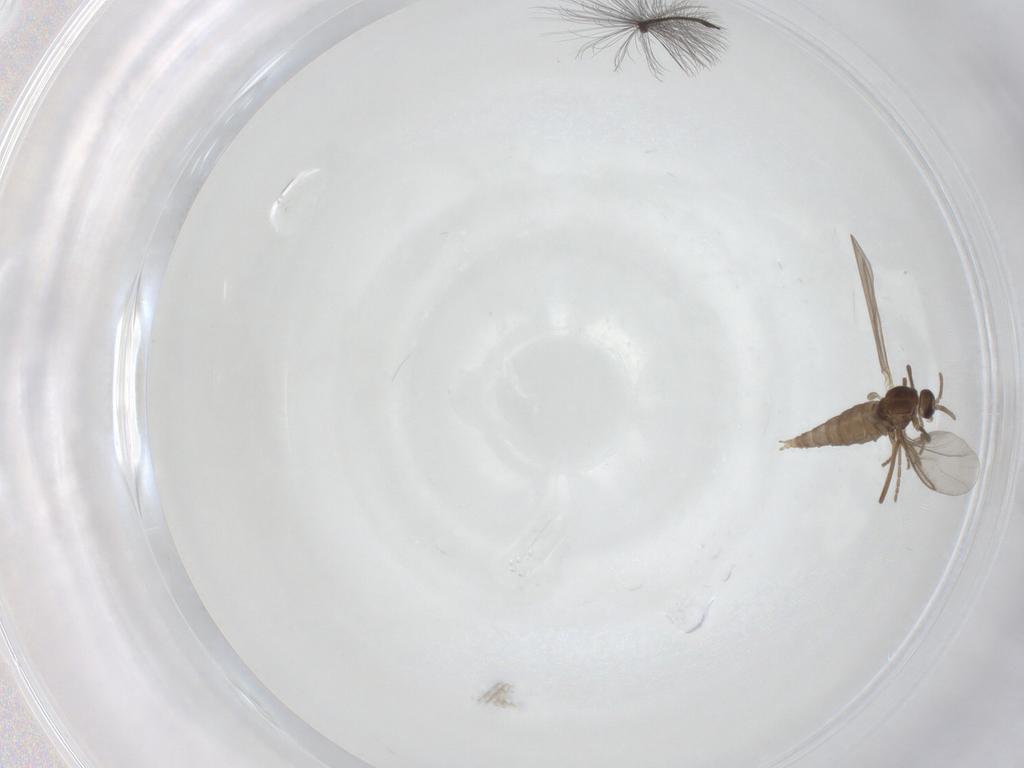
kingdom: Animalia
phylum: Arthropoda
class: Insecta
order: Diptera
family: Cecidomyiidae
